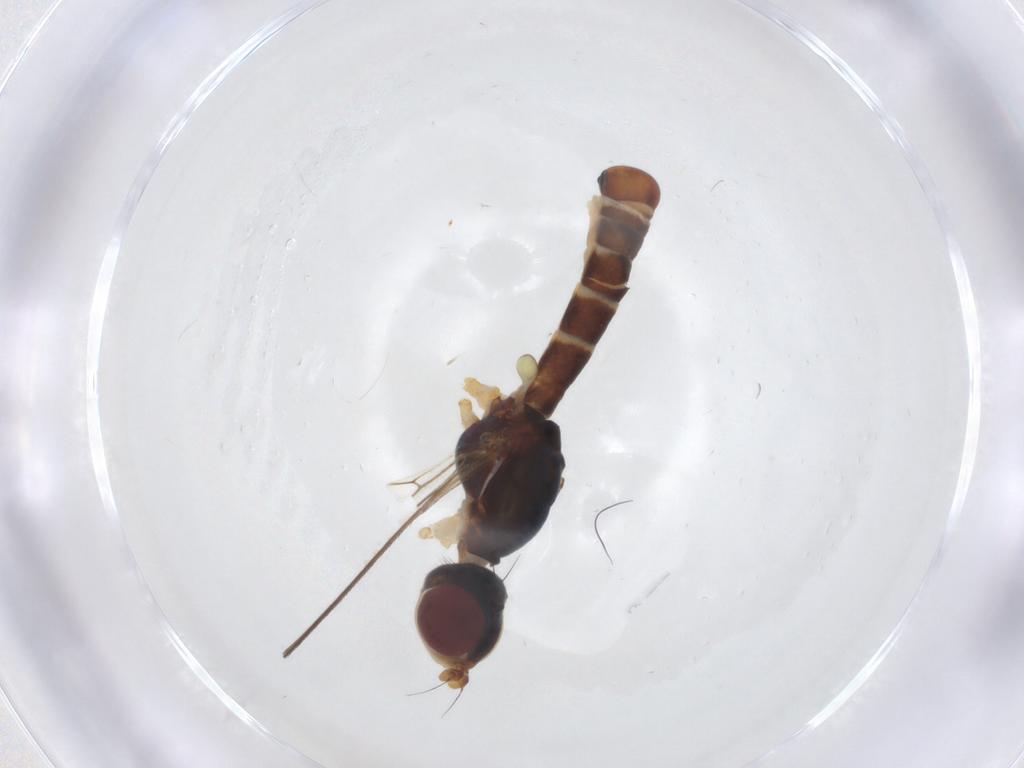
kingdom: Animalia
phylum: Arthropoda
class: Insecta
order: Diptera
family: Micropezidae
